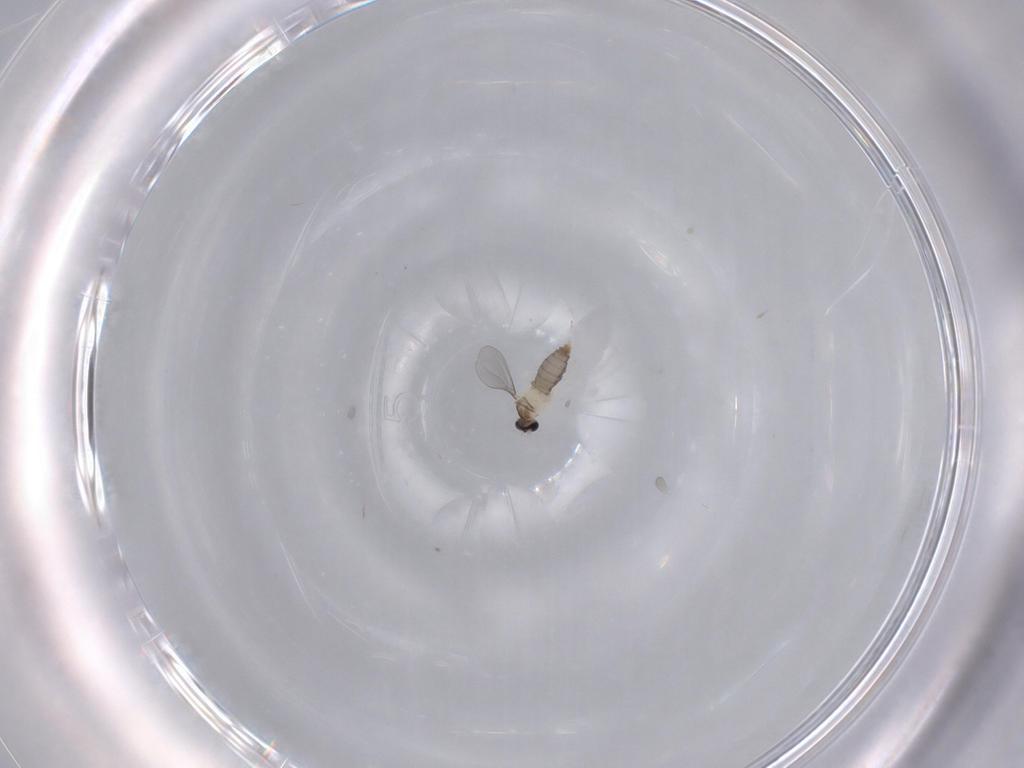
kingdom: Animalia
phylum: Arthropoda
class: Insecta
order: Diptera
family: Cecidomyiidae
